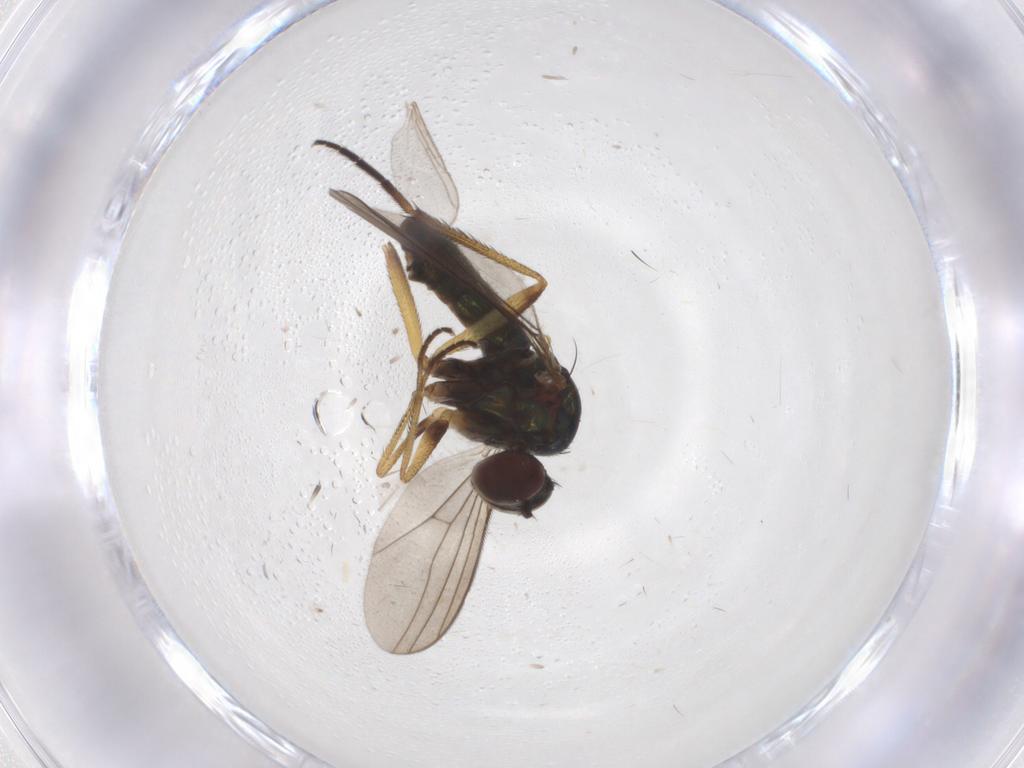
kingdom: Animalia
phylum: Arthropoda
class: Insecta
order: Diptera
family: Dolichopodidae
